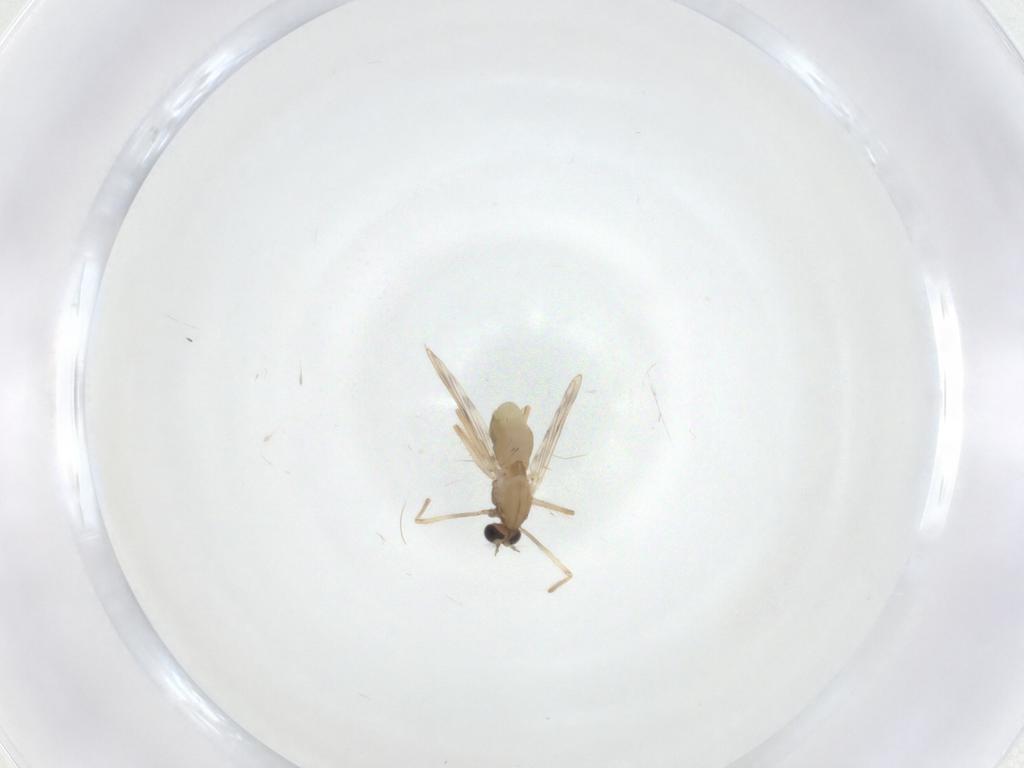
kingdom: Animalia
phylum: Arthropoda
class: Insecta
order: Diptera
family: Chironomidae
